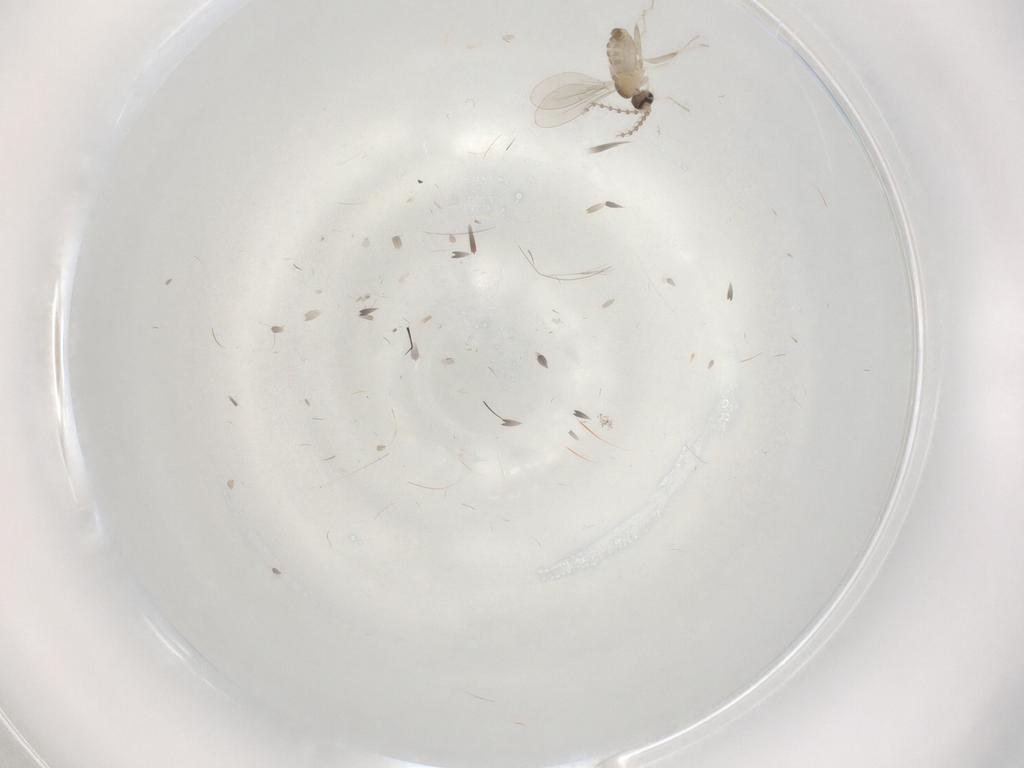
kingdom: Animalia
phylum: Arthropoda
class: Insecta
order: Diptera
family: Cecidomyiidae
